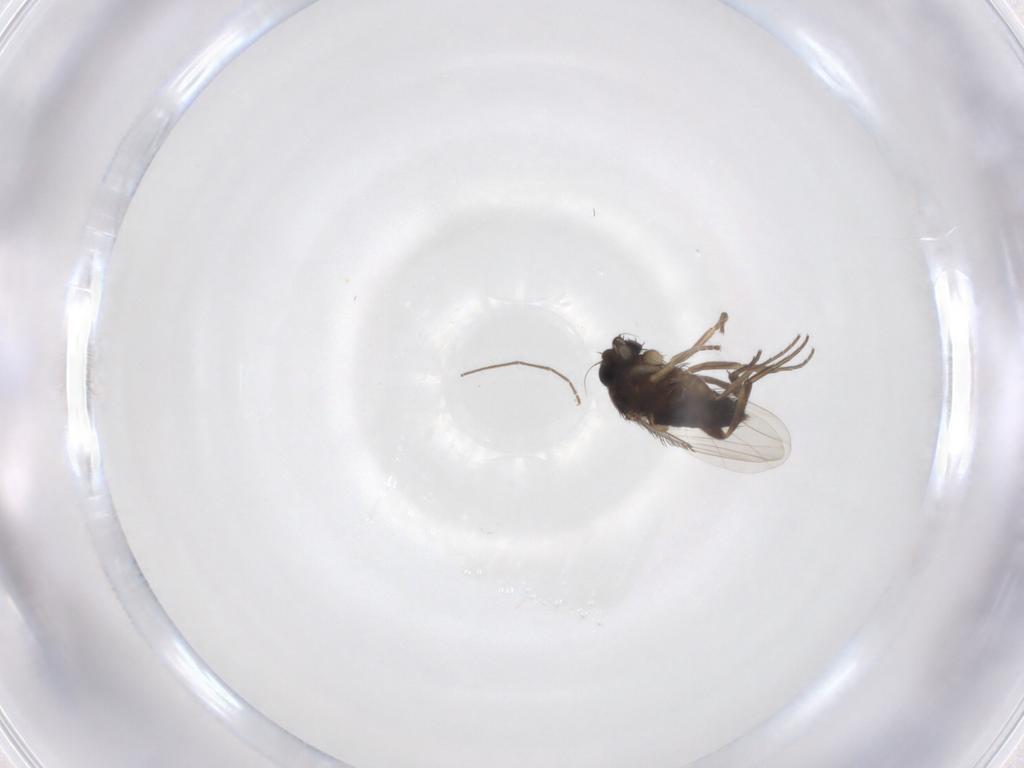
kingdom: Animalia
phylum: Arthropoda
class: Insecta
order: Diptera
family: Phoridae
